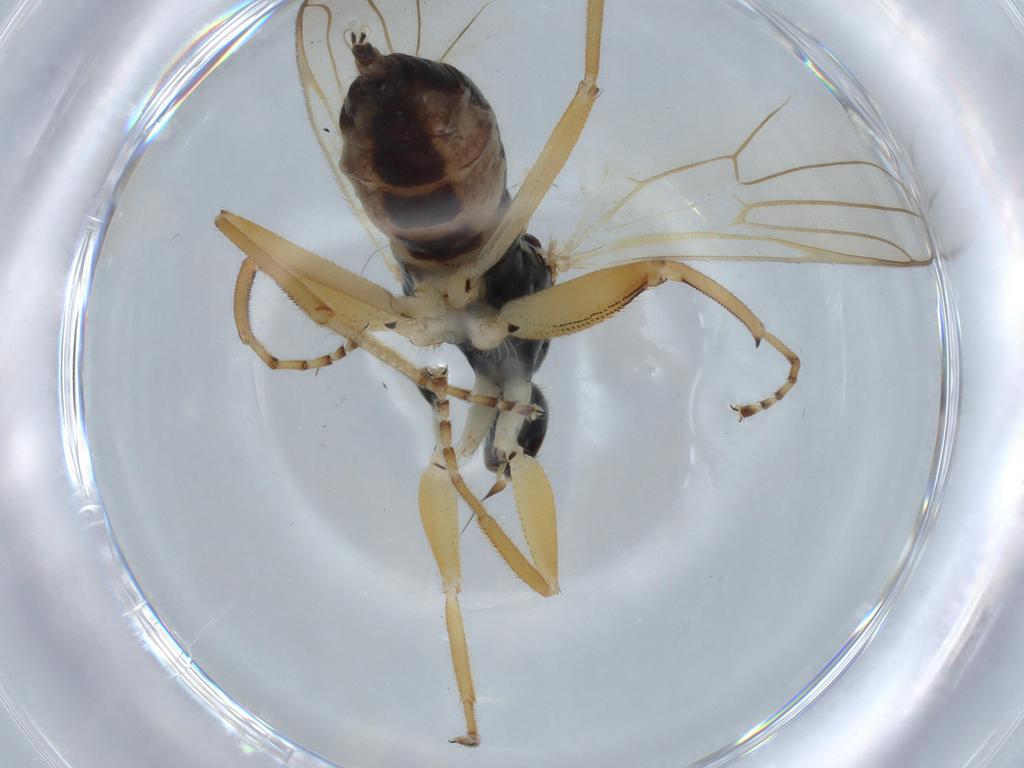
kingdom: Animalia
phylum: Arthropoda
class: Insecta
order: Diptera
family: Hybotidae
